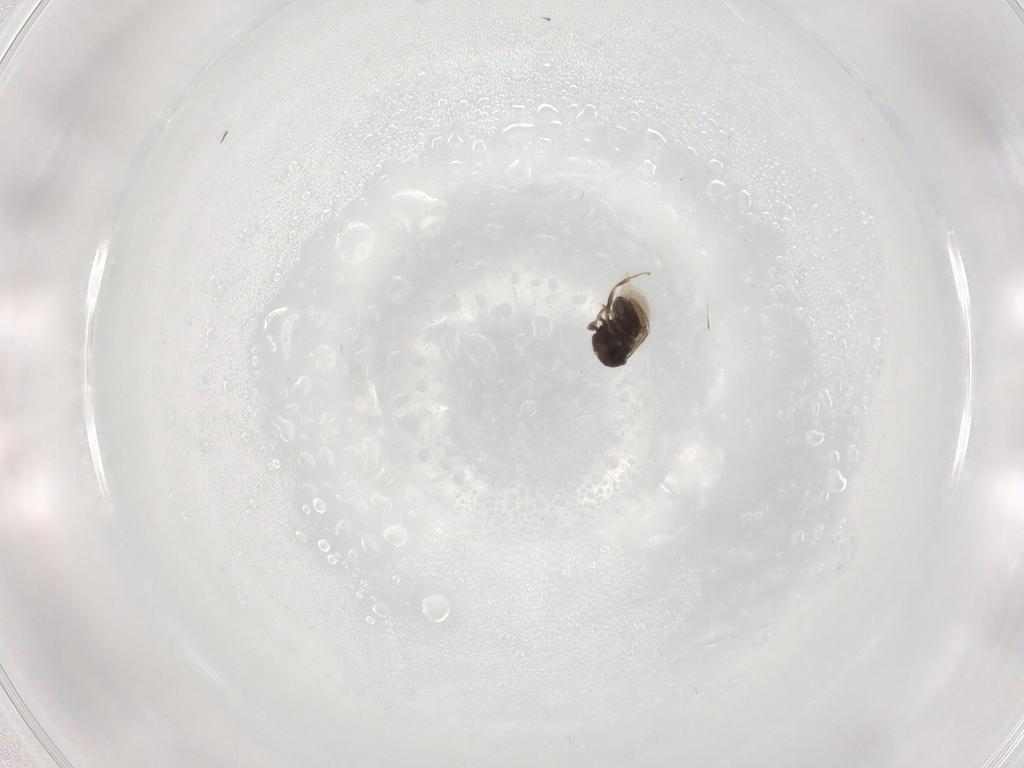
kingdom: Animalia
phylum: Arthropoda
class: Insecta
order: Hymenoptera
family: Scelionidae
